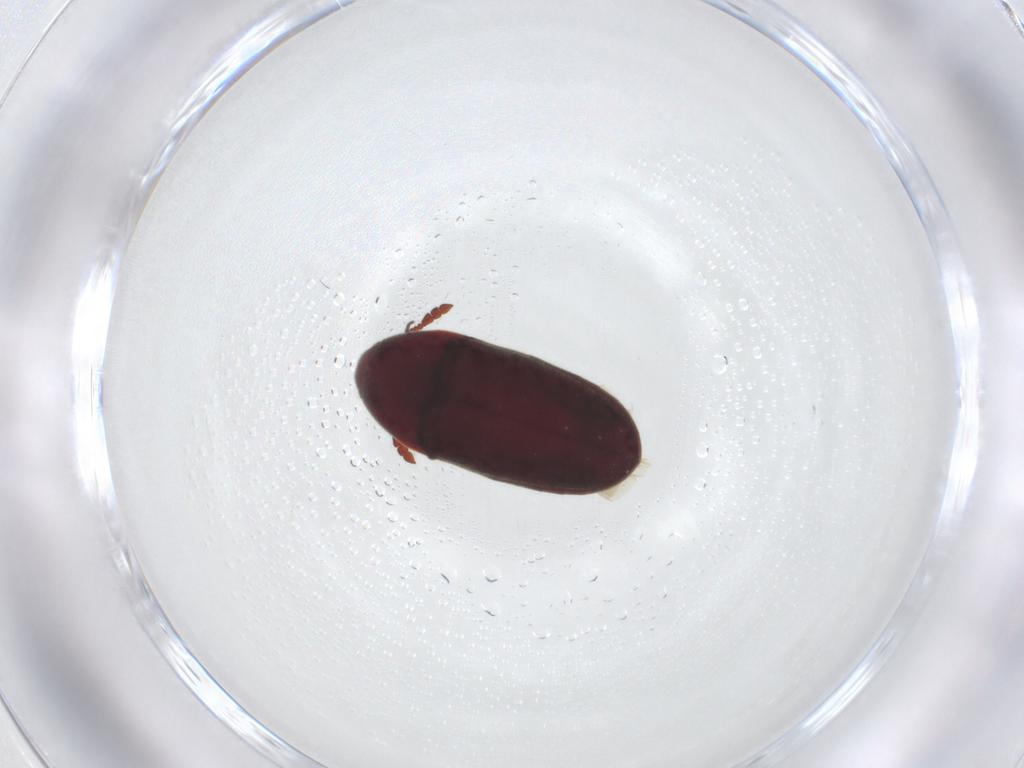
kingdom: Animalia
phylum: Arthropoda
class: Insecta
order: Coleoptera
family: Throscidae
